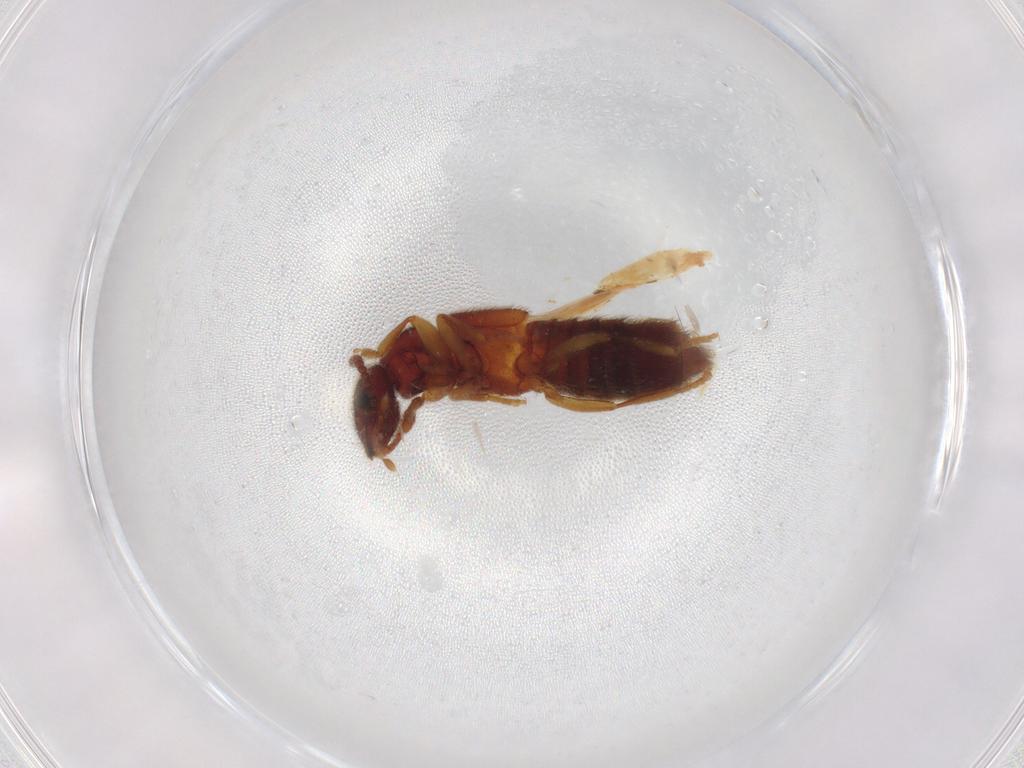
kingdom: Animalia
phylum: Arthropoda
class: Insecta
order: Coleoptera
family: Staphylinidae
